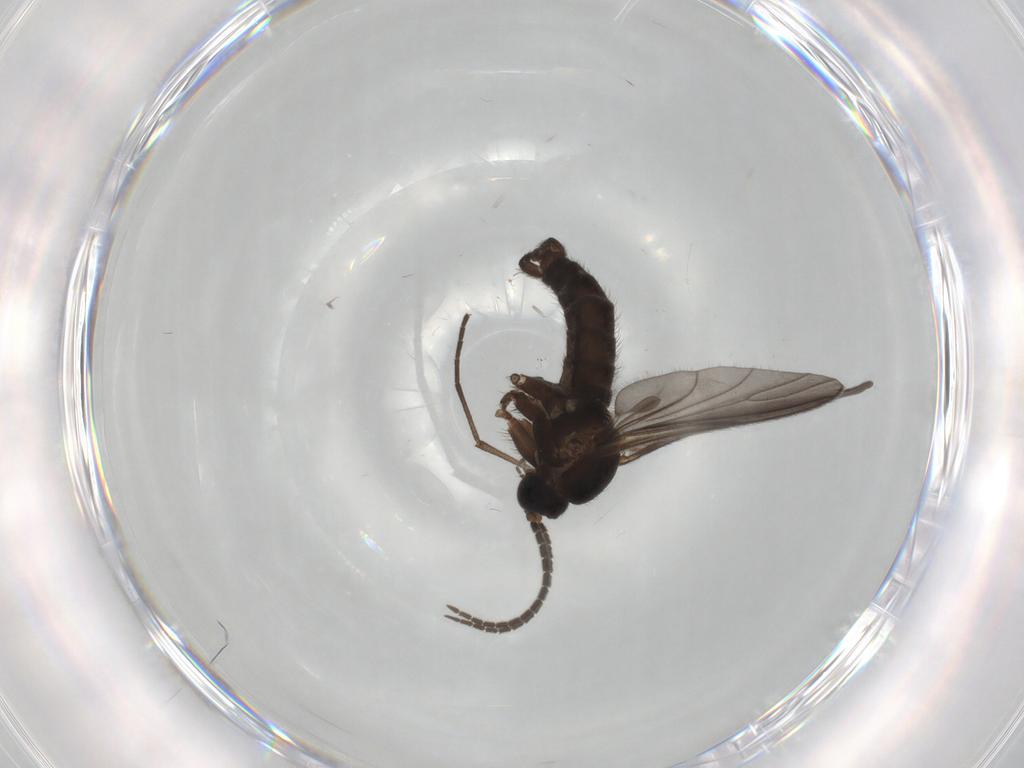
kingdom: Animalia
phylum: Arthropoda
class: Insecta
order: Diptera
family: Sciaridae
